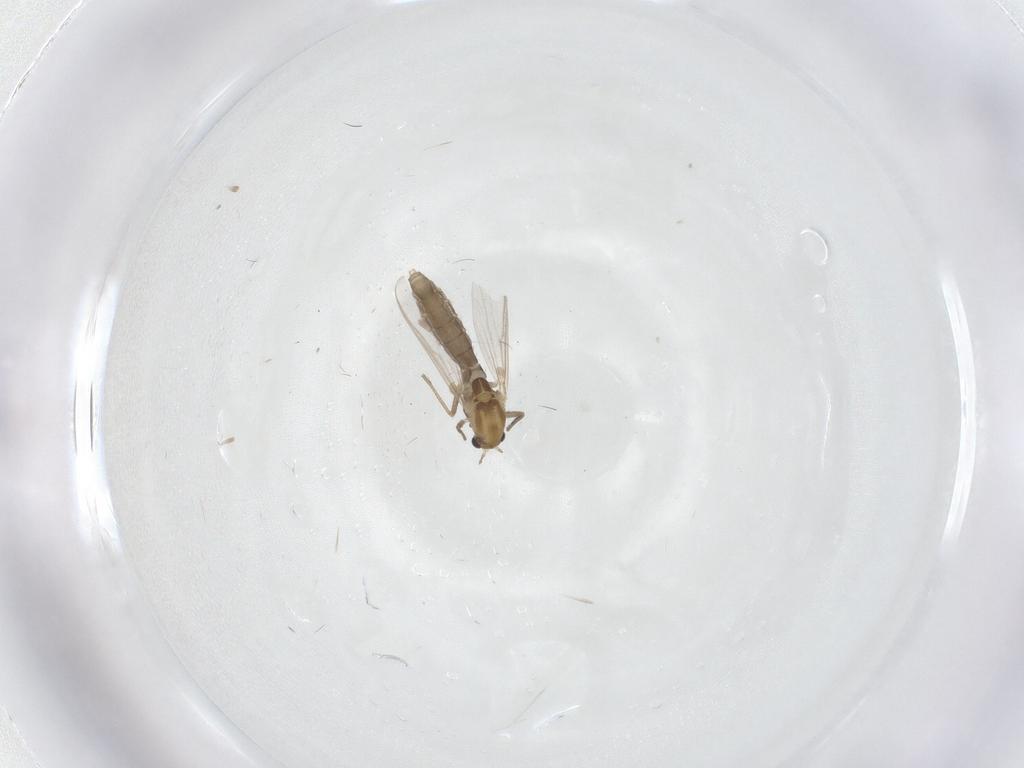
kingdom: Animalia
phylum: Arthropoda
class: Insecta
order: Diptera
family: Chironomidae
